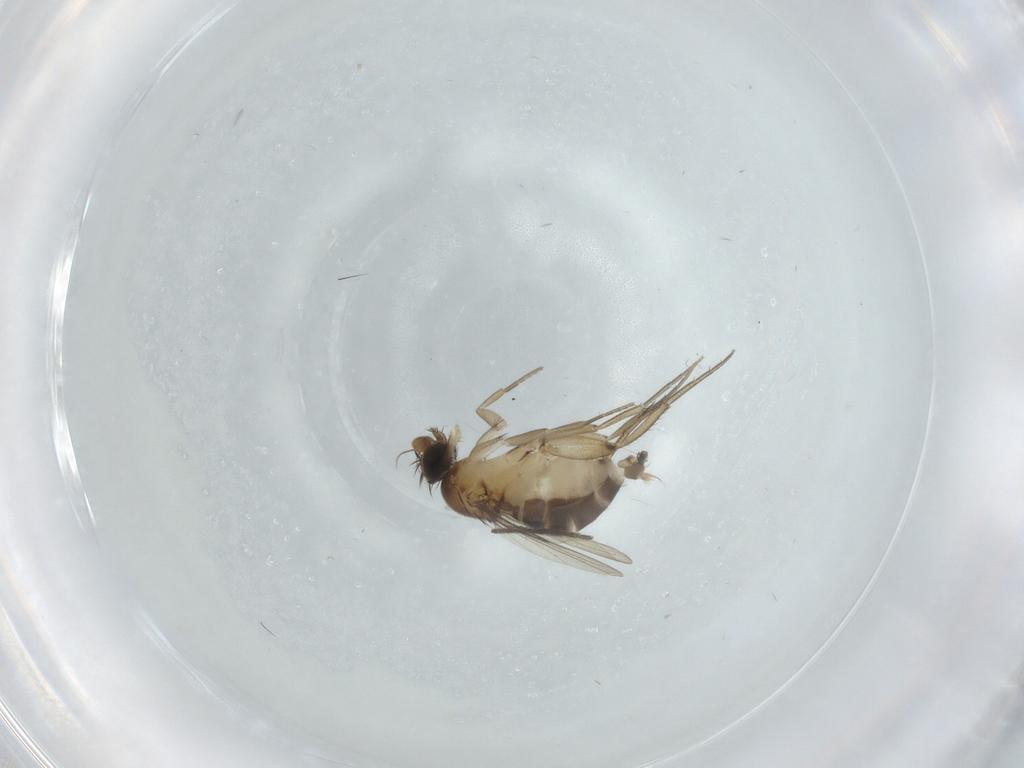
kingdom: Animalia
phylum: Arthropoda
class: Insecta
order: Diptera
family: Phoridae
